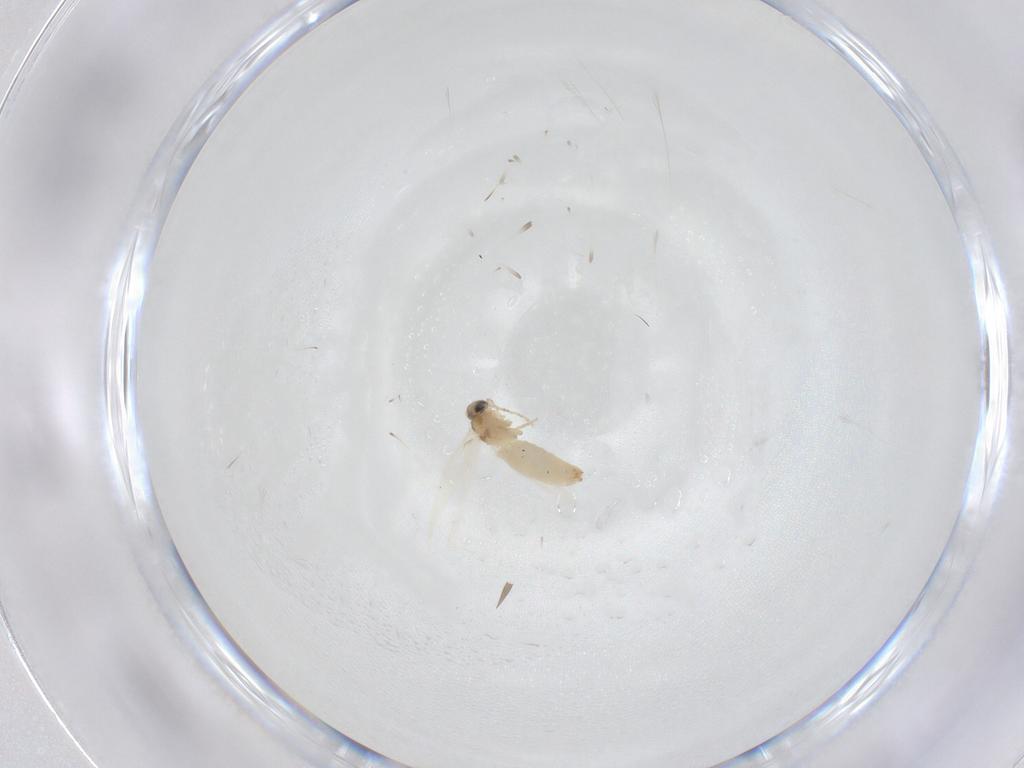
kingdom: Animalia
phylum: Arthropoda
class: Insecta
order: Lepidoptera
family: Crambidae
